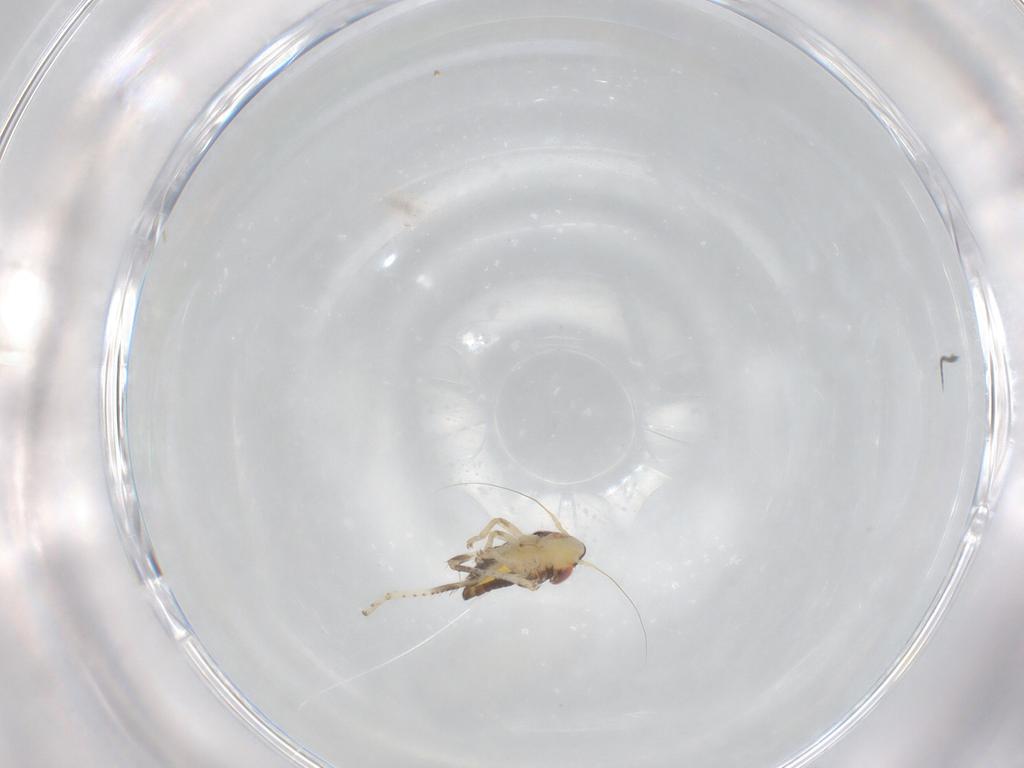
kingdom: Animalia
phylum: Arthropoda
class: Insecta
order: Hemiptera
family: Cicadellidae
